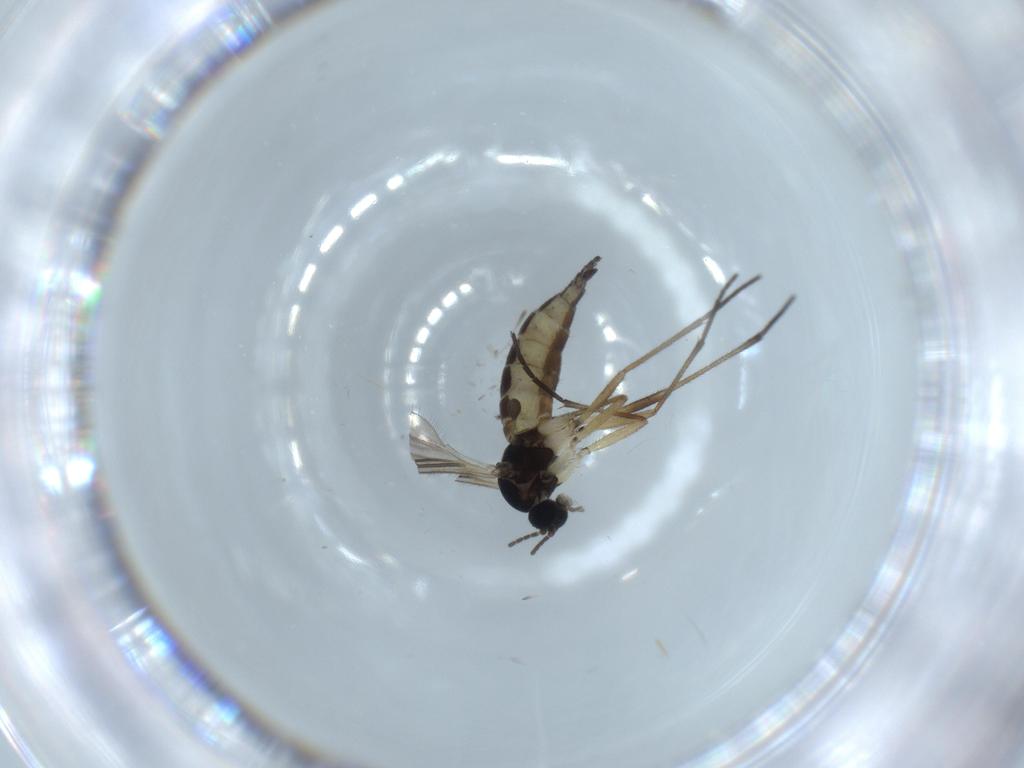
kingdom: Animalia
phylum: Arthropoda
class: Insecta
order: Diptera
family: Sciaridae
